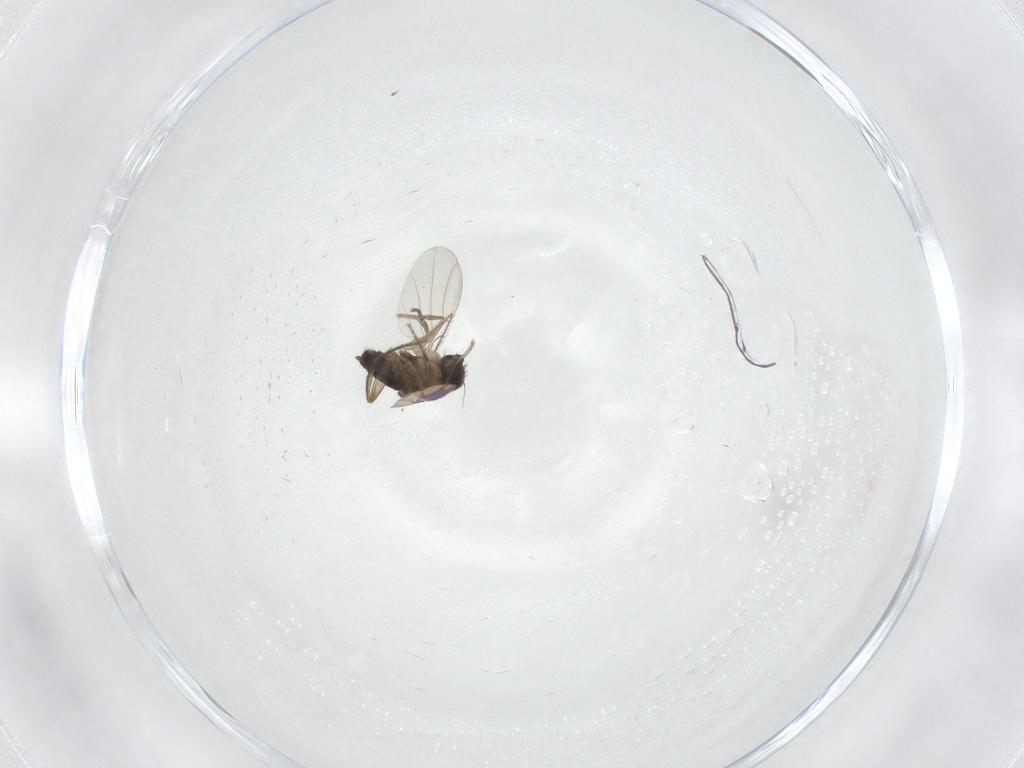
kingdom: Animalia
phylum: Arthropoda
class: Insecta
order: Diptera
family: Phoridae
